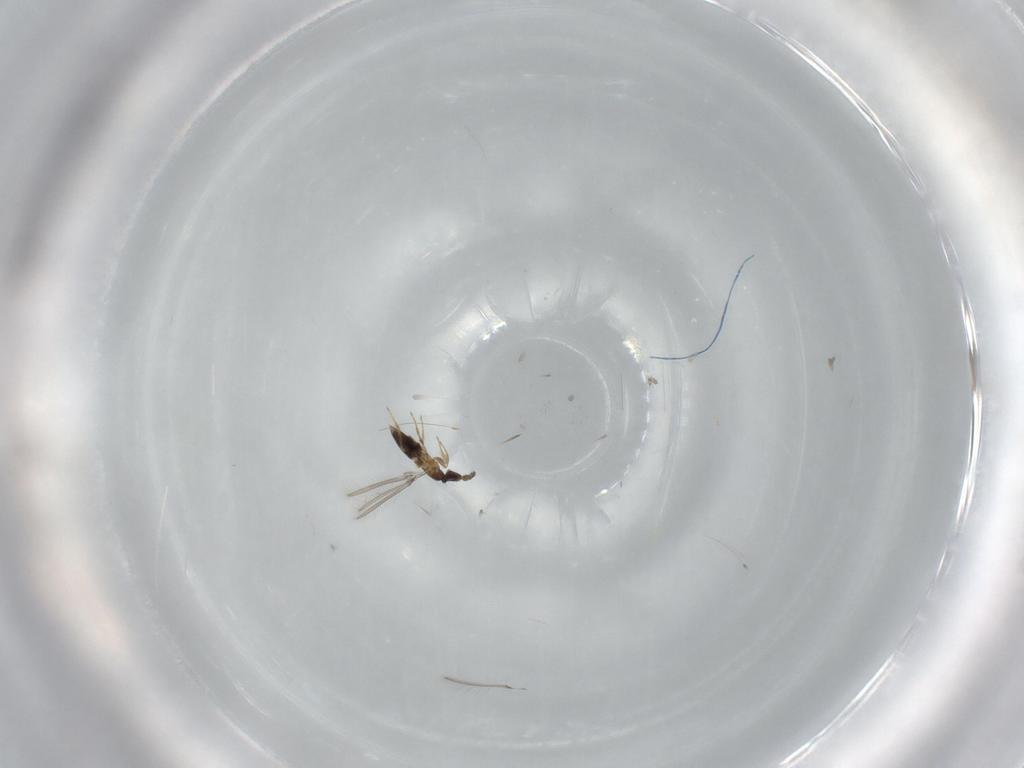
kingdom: Animalia
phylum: Arthropoda
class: Insecta
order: Hymenoptera
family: Mymaridae
